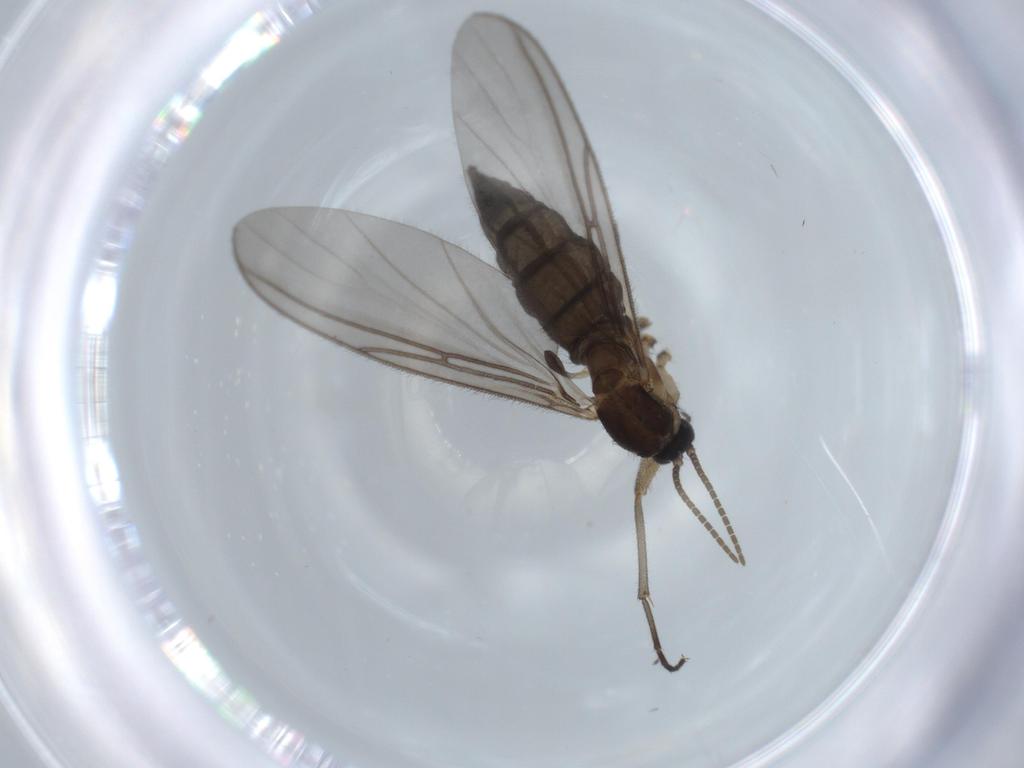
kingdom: Animalia
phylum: Arthropoda
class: Insecta
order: Diptera
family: Sciaridae
